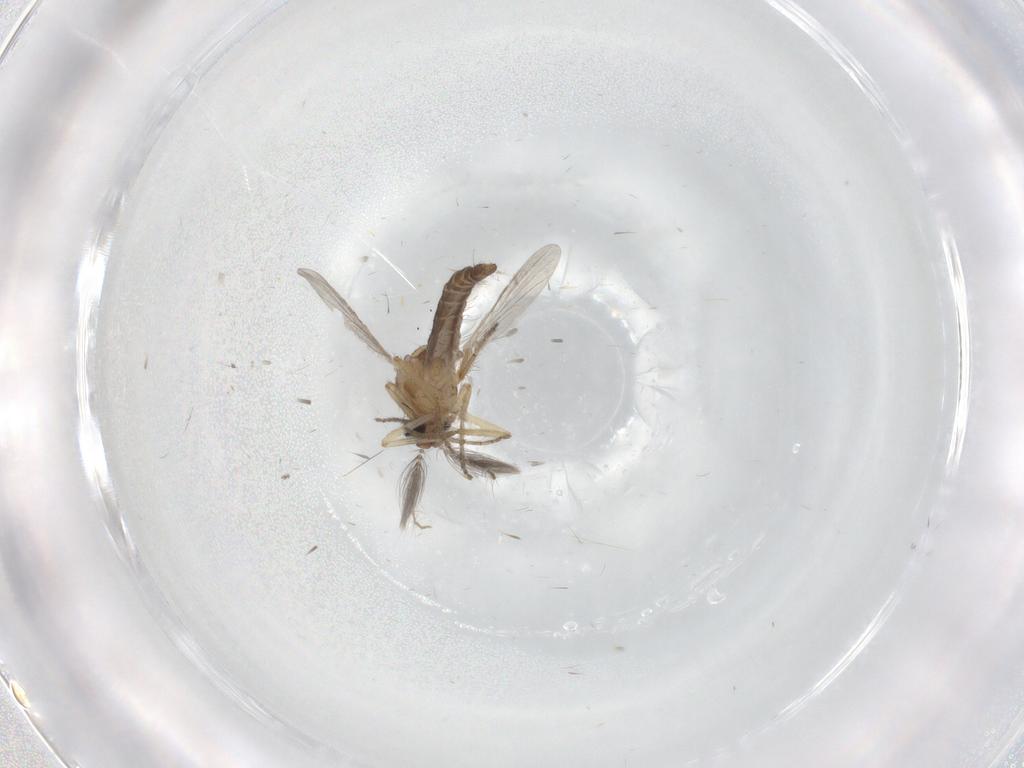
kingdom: Animalia
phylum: Arthropoda
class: Insecta
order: Diptera
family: Ceratopogonidae
